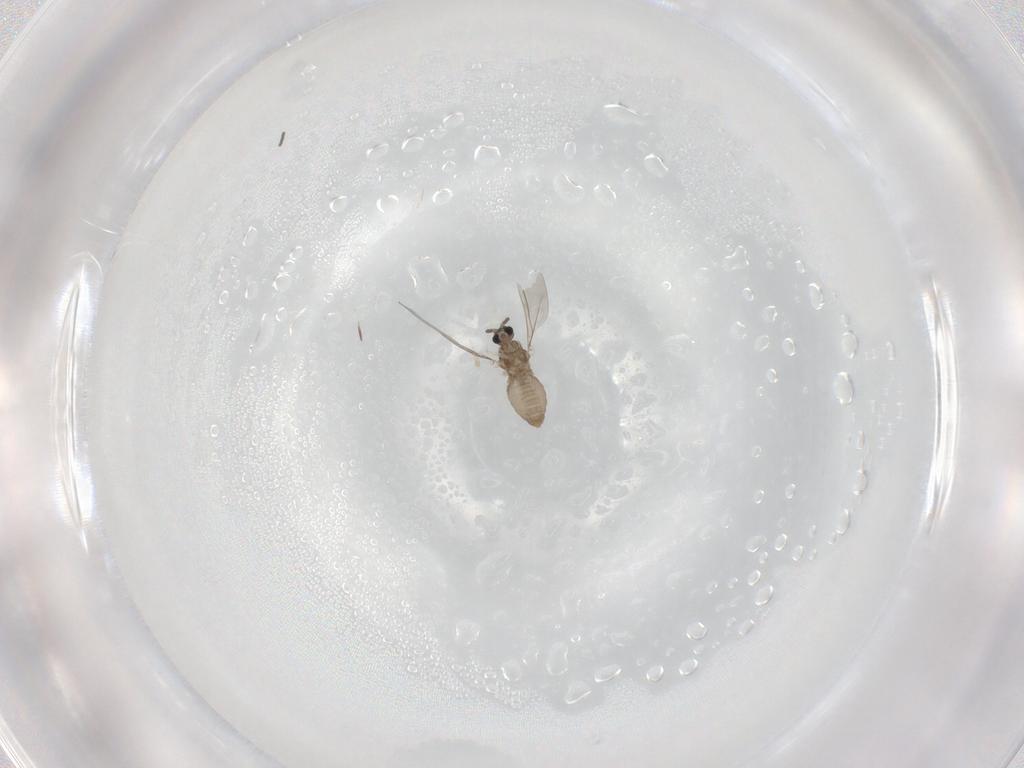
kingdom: Animalia
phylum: Arthropoda
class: Insecta
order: Diptera
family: Cecidomyiidae
